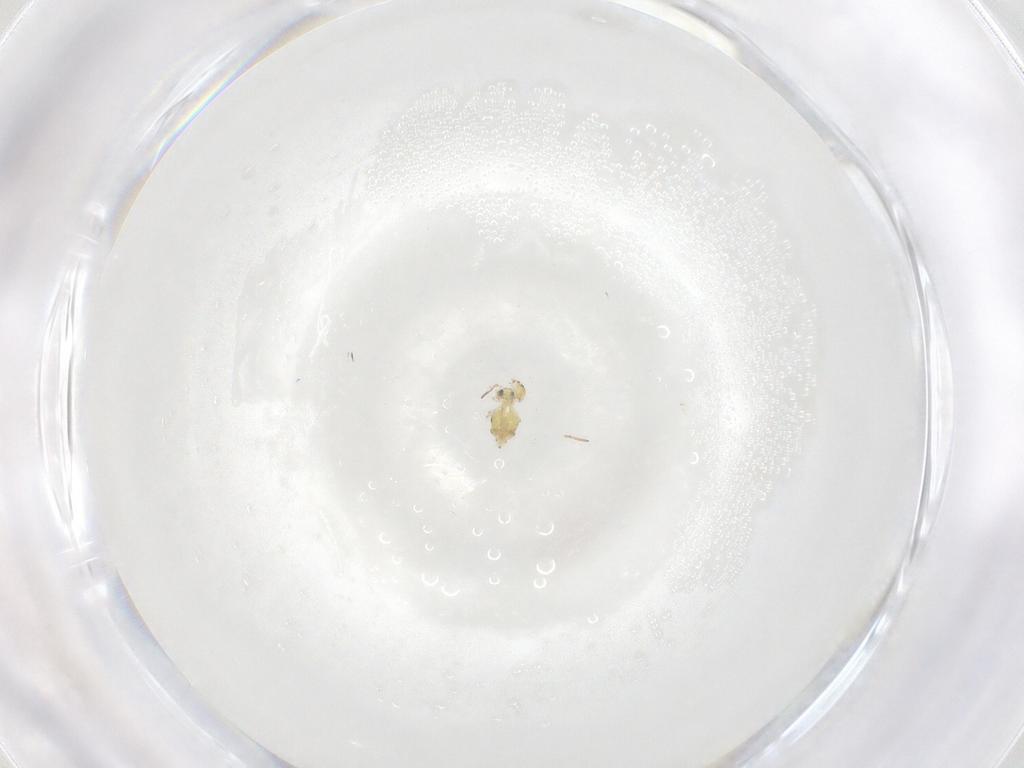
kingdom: Animalia
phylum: Arthropoda
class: Collembola
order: Symphypleona
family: Bourletiellidae
